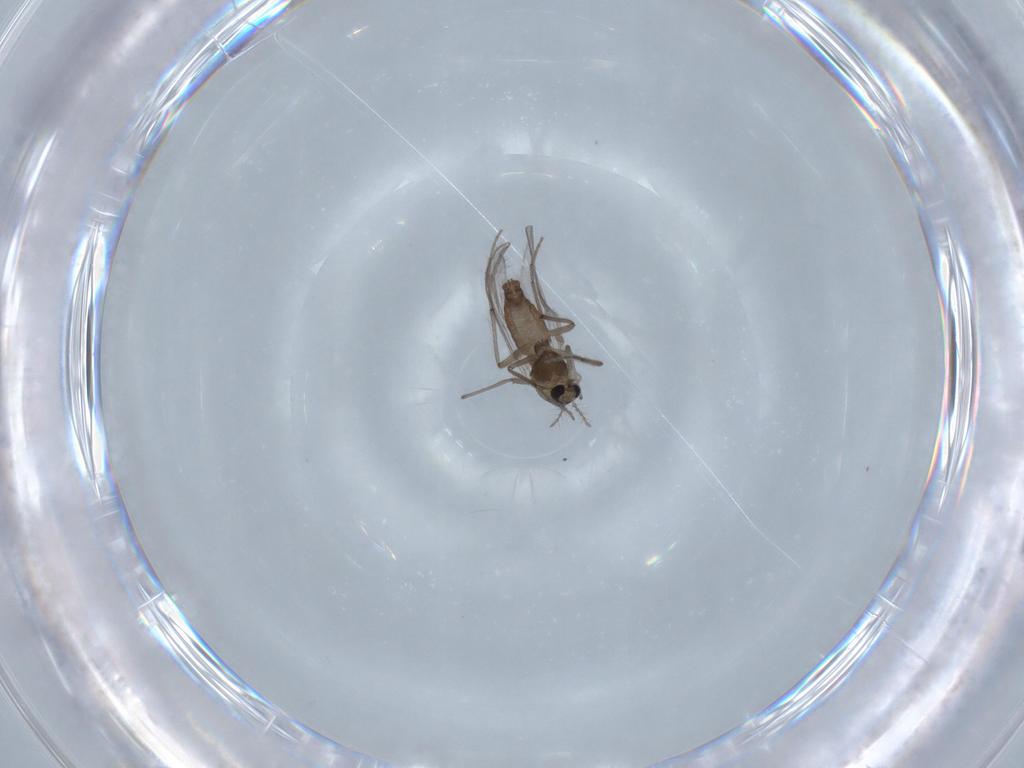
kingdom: Animalia
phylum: Arthropoda
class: Insecta
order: Diptera
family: Chironomidae
